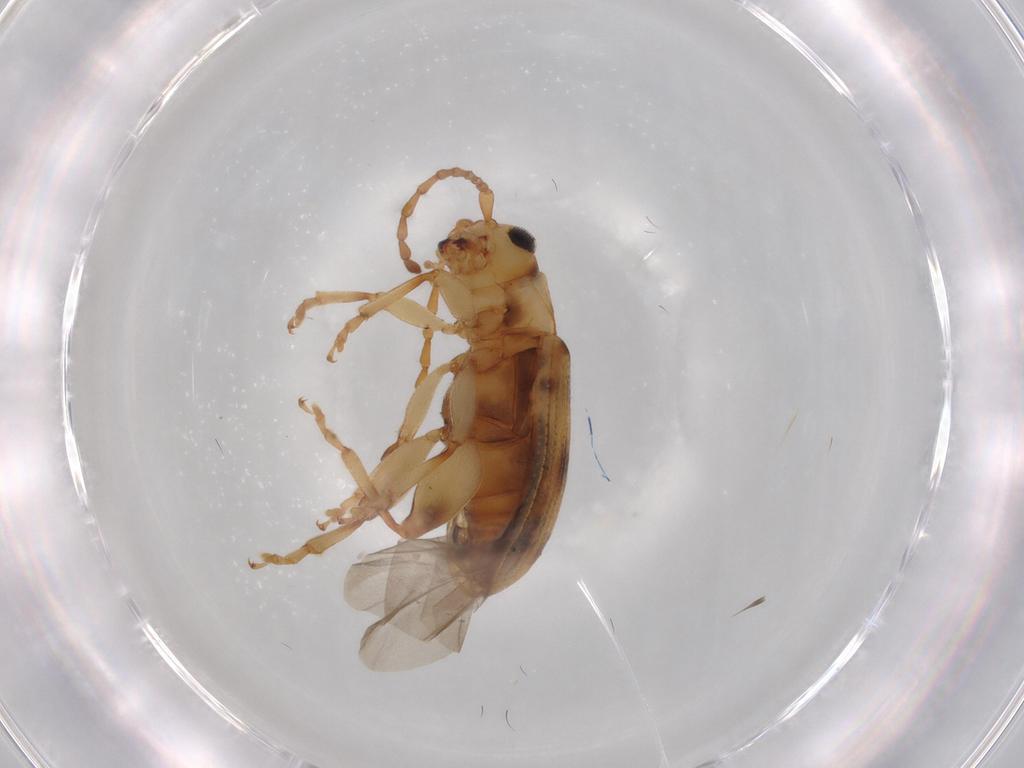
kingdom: Animalia
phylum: Arthropoda
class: Insecta
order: Coleoptera
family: Chrysomelidae
